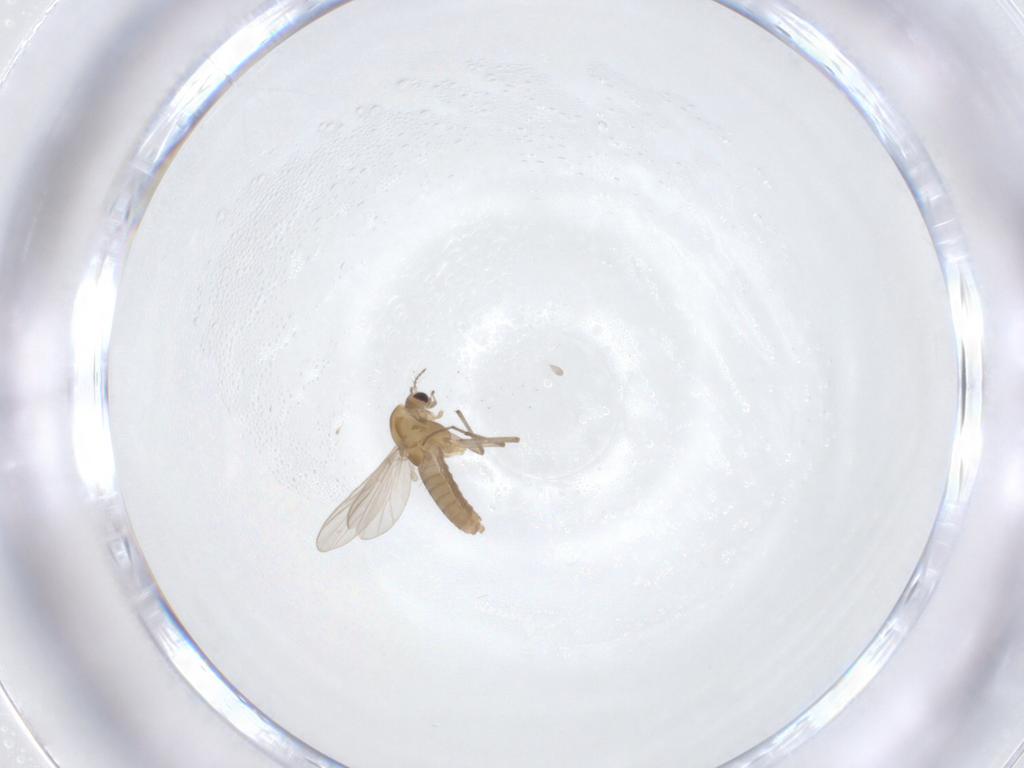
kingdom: Animalia
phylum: Arthropoda
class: Insecta
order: Diptera
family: Chironomidae
